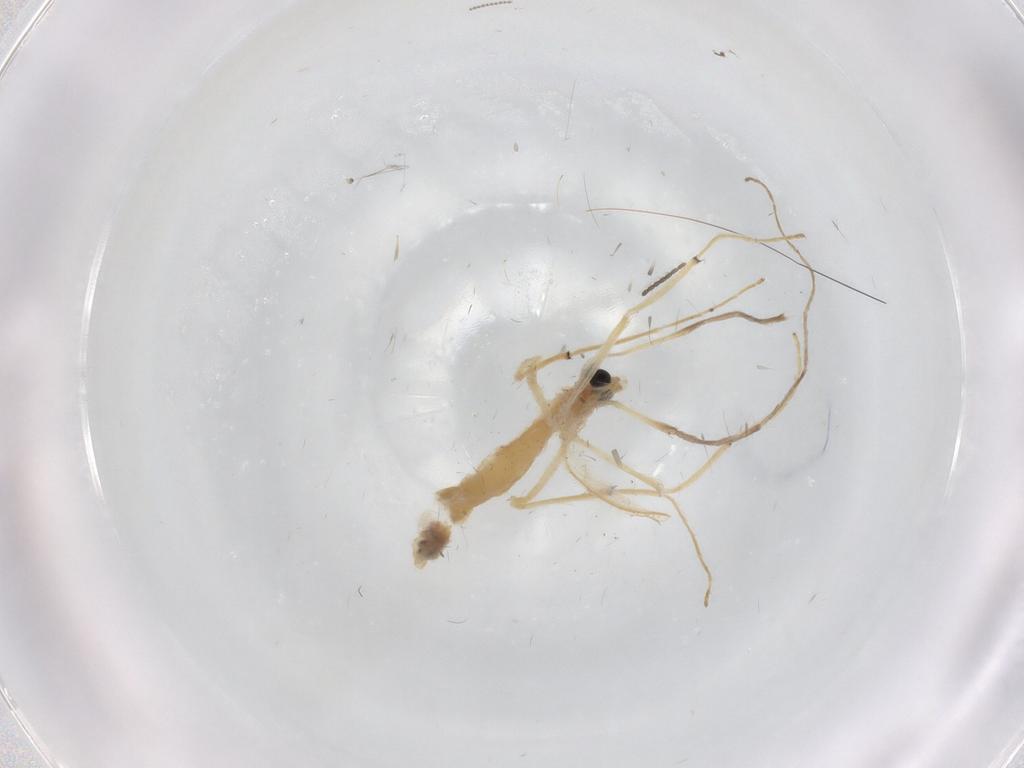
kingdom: Animalia
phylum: Arthropoda
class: Insecta
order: Diptera
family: Chironomidae
